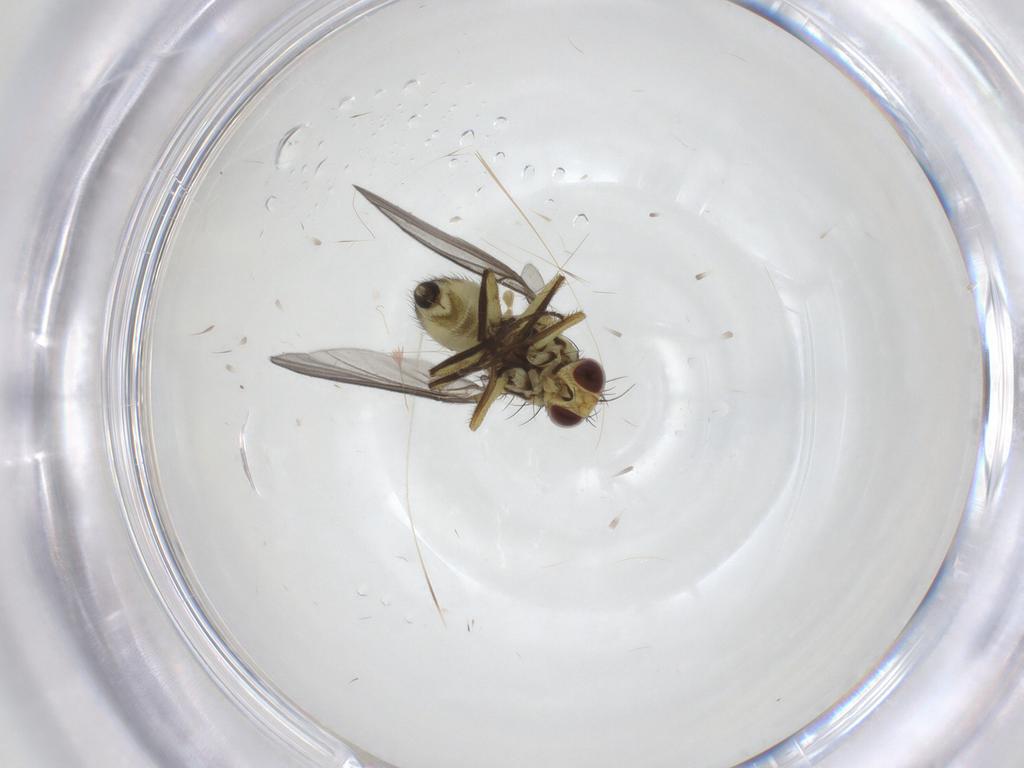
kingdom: Animalia
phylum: Arthropoda
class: Insecta
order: Diptera
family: Agromyzidae
